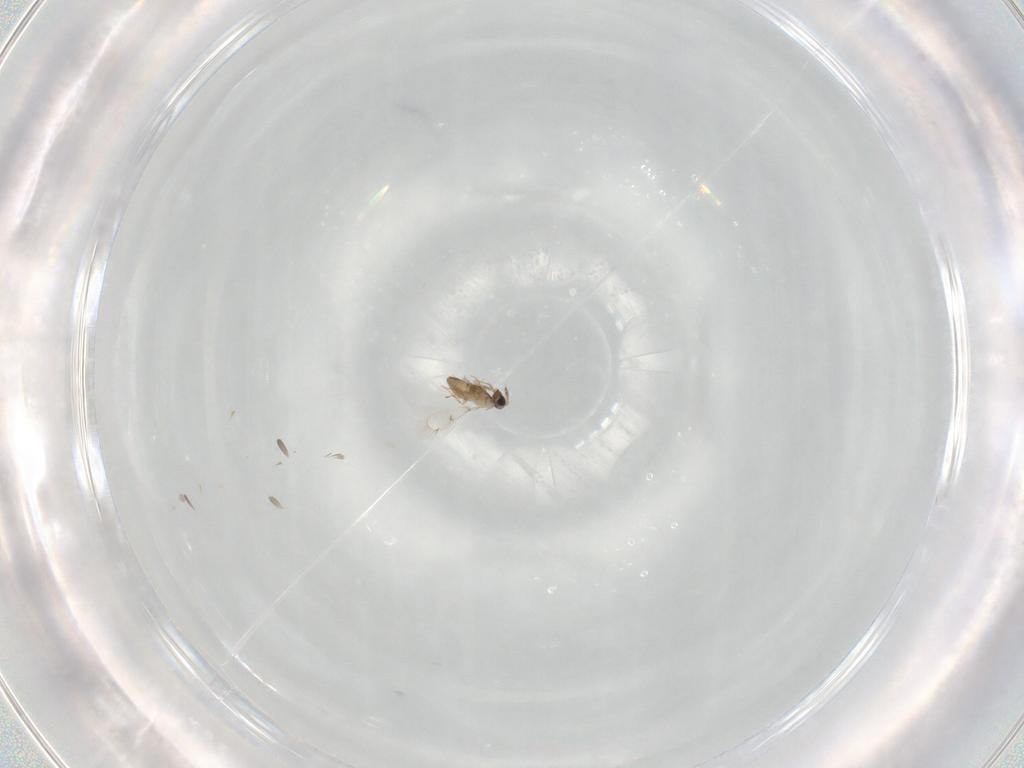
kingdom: Animalia
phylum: Arthropoda
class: Insecta
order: Hymenoptera
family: Trichogrammatidae
